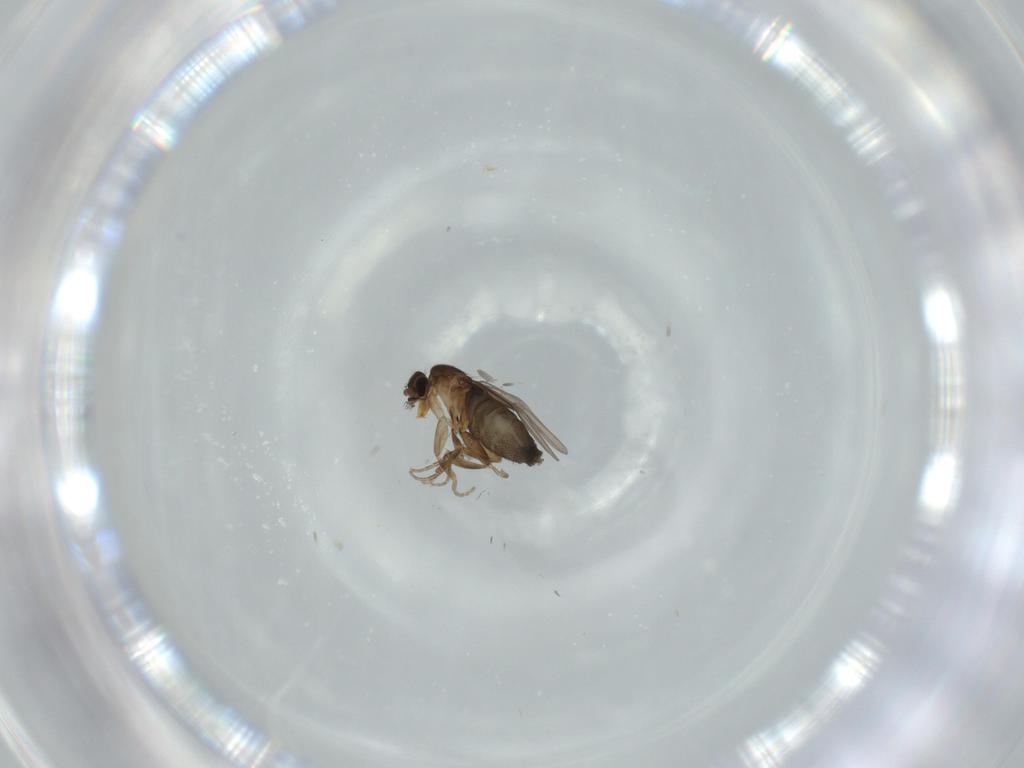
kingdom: Animalia
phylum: Arthropoda
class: Insecta
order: Diptera
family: Phoridae
